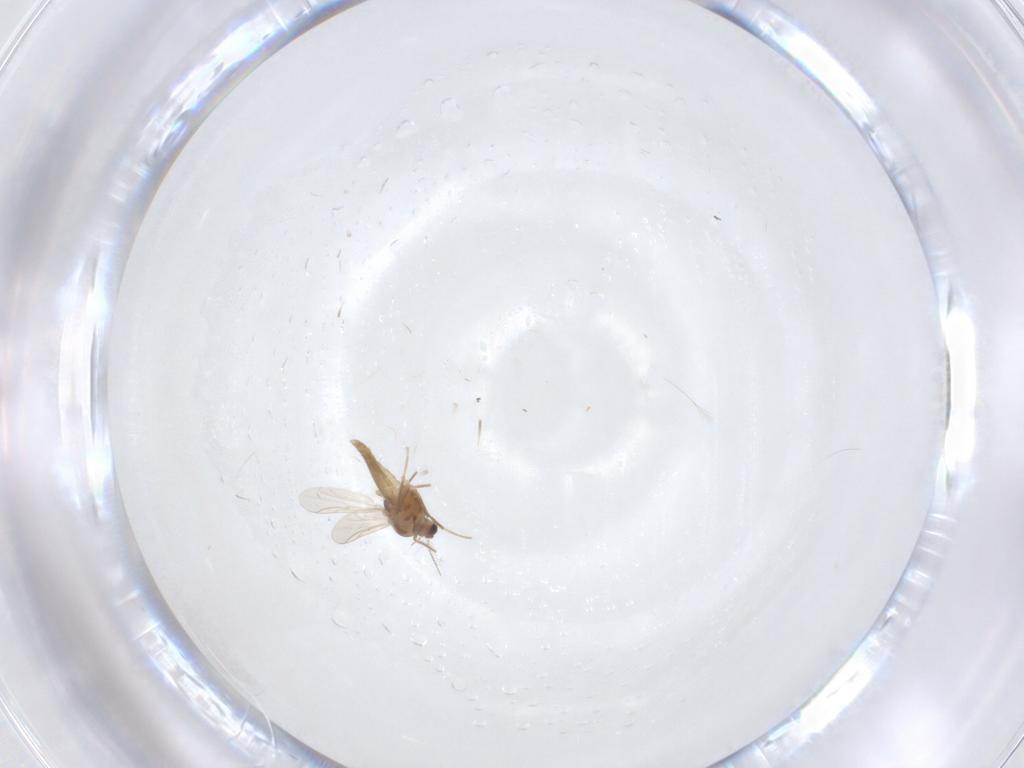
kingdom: Animalia
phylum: Arthropoda
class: Insecta
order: Diptera
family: Chironomidae
